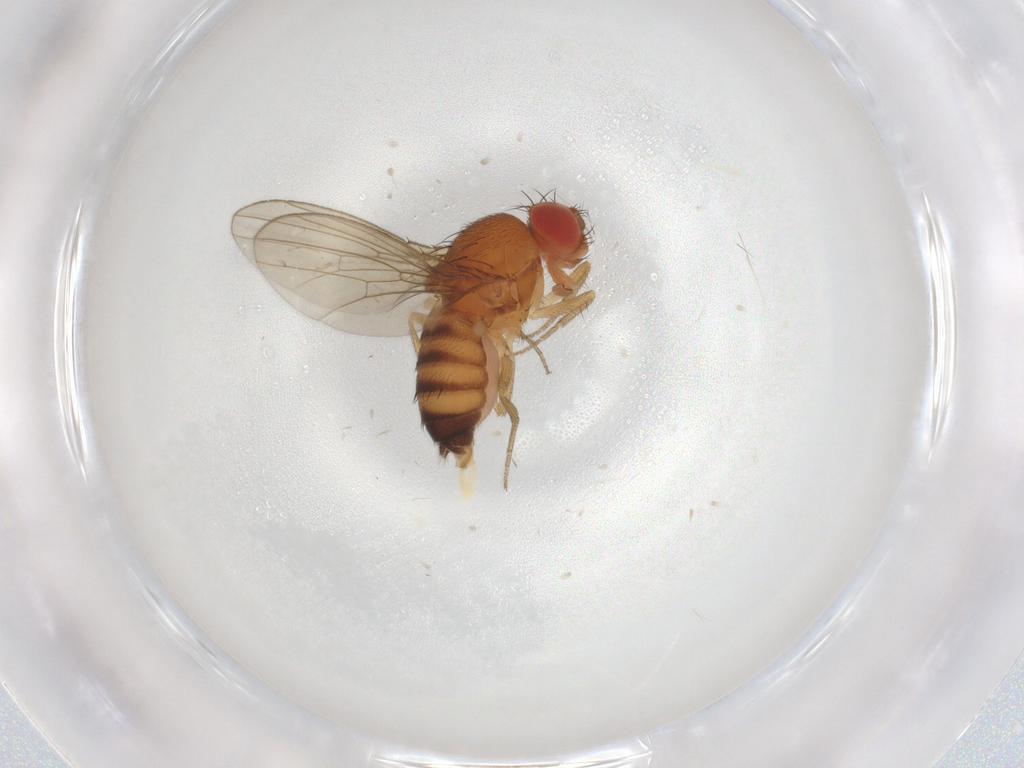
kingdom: Animalia
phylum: Arthropoda
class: Insecta
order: Diptera
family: Drosophilidae
